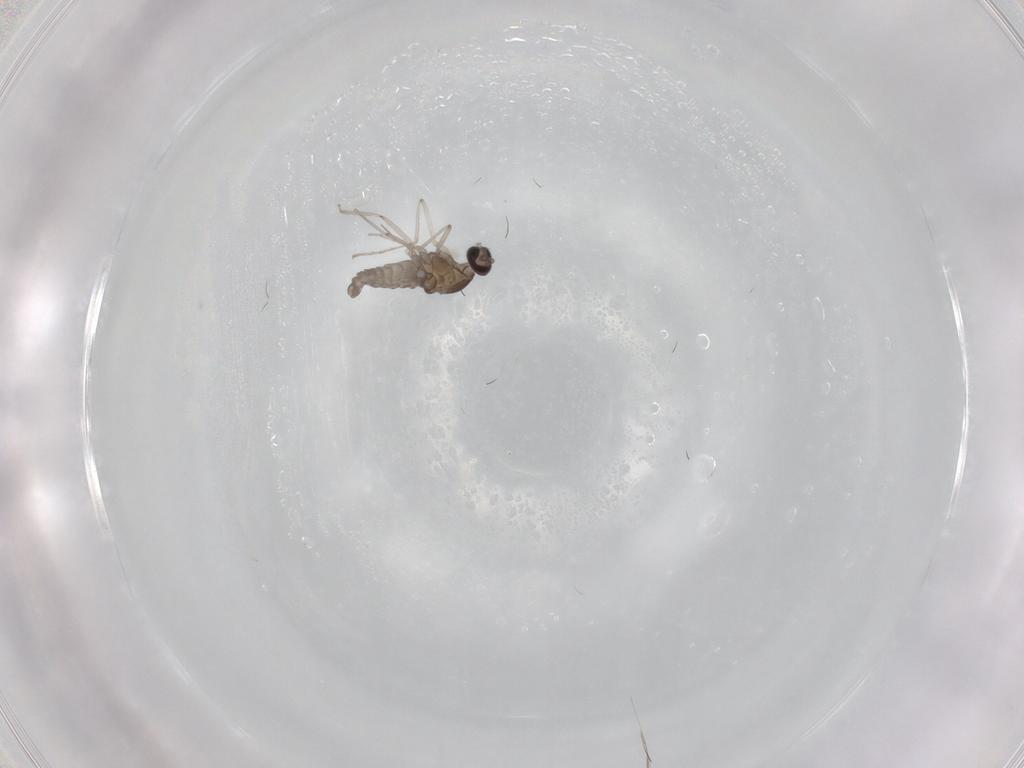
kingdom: Animalia
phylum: Arthropoda
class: Insecta
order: Diptera
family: Cecidomyiidae
